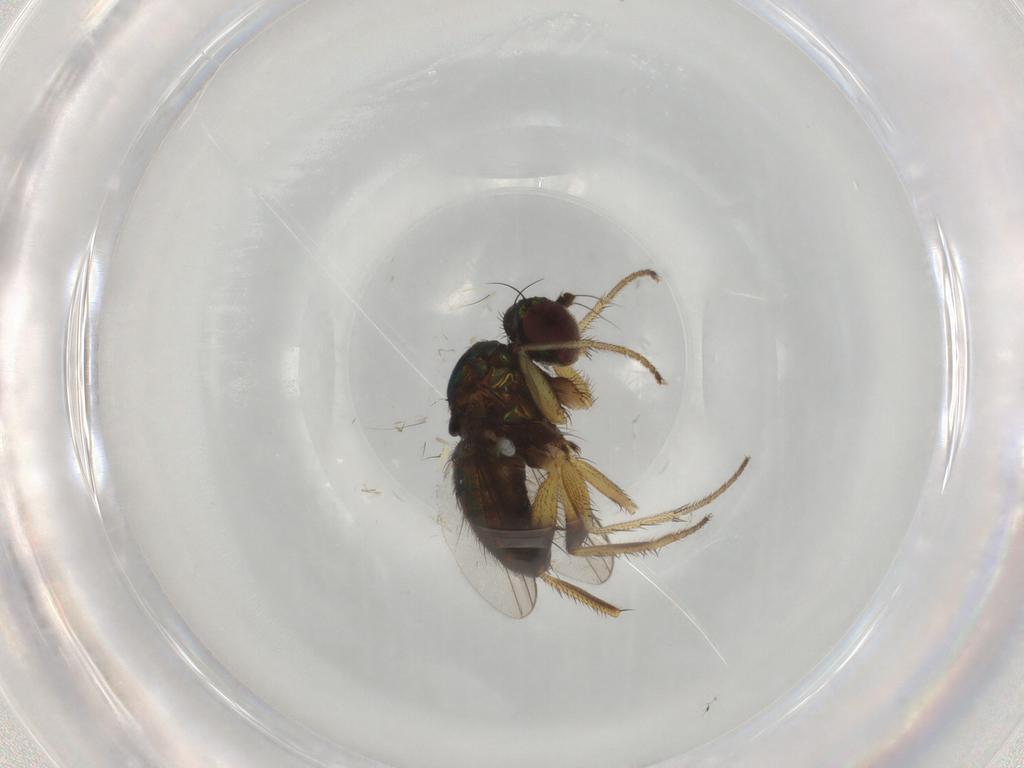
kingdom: Animalia
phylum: Arthropoda
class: Insecta
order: Diptera
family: Dolichopodidae
